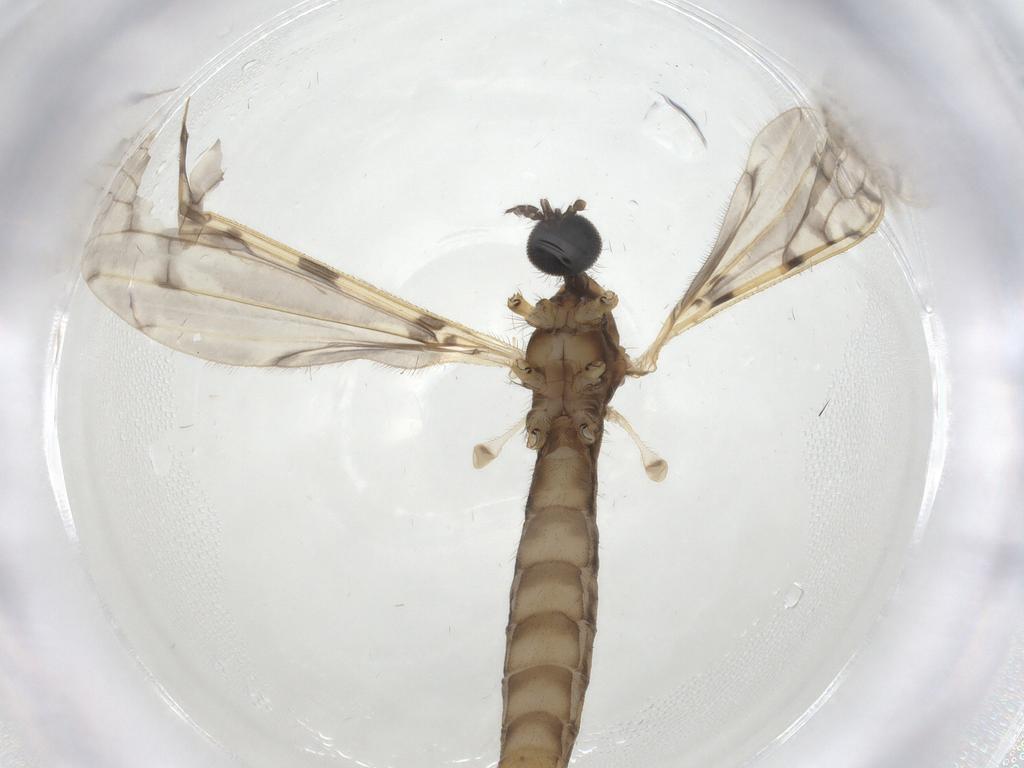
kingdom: Animalia
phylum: Arthropoda
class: Insecta
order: Diptera
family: Limoniidae
